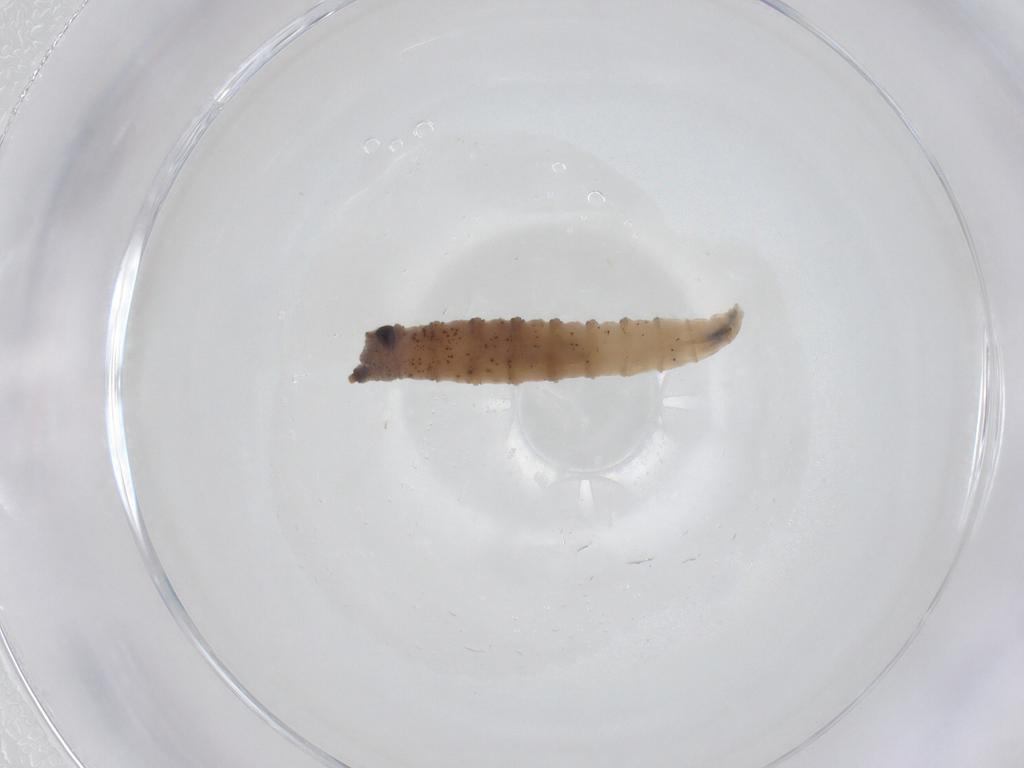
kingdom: Animalia
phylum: Arthropoda
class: Insecta
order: Diptera
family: Drosophilidae
